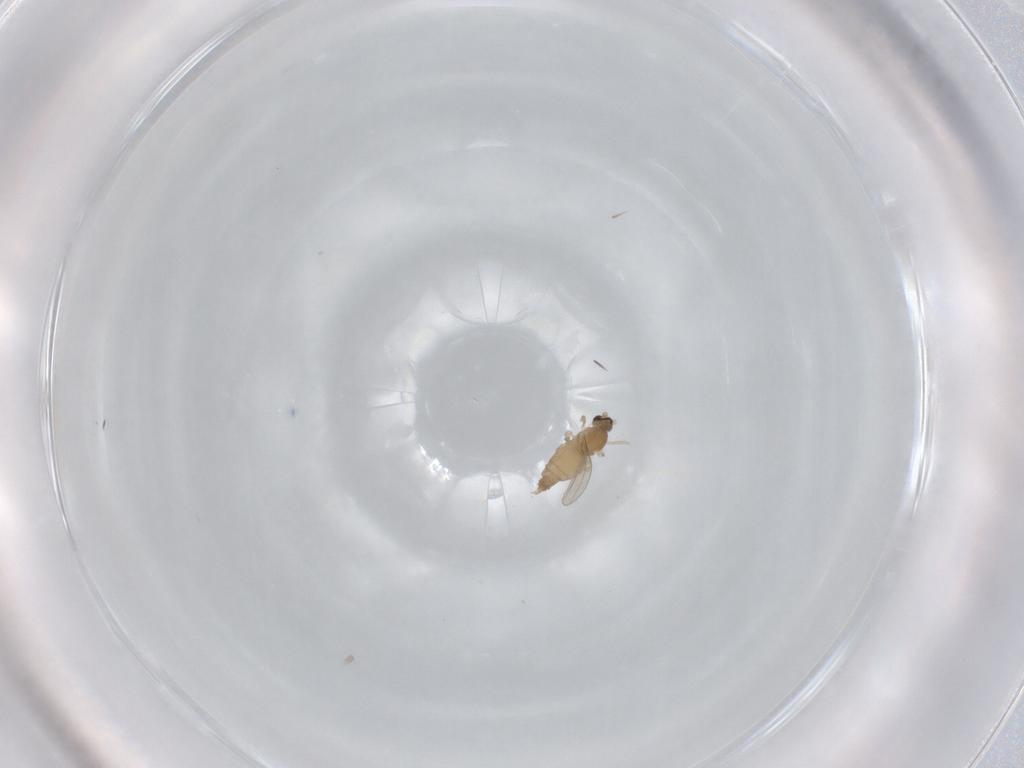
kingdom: Animalia
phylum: Arthropoda
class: Insecta
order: Diptera
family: Cecidomyiidae
